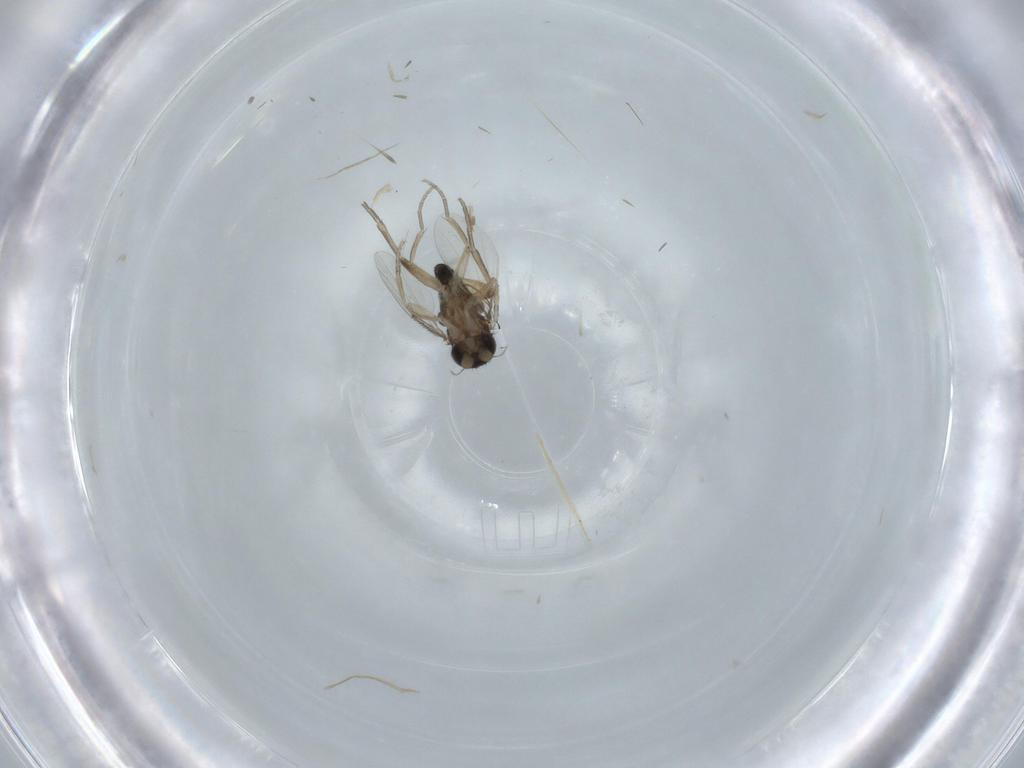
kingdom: Animalia
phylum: Arthropoda
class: Insecta
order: Diptera
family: Phoridae
